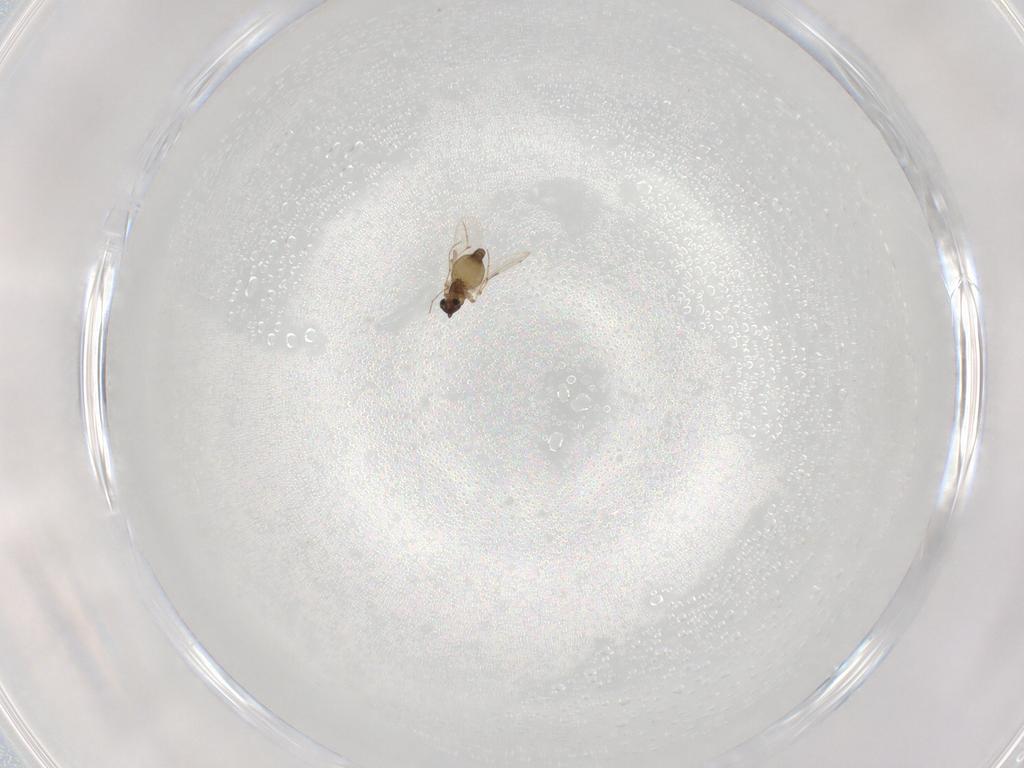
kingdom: Animalia
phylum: Arthropoda
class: Insecta
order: Diptera
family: Chironomidae
